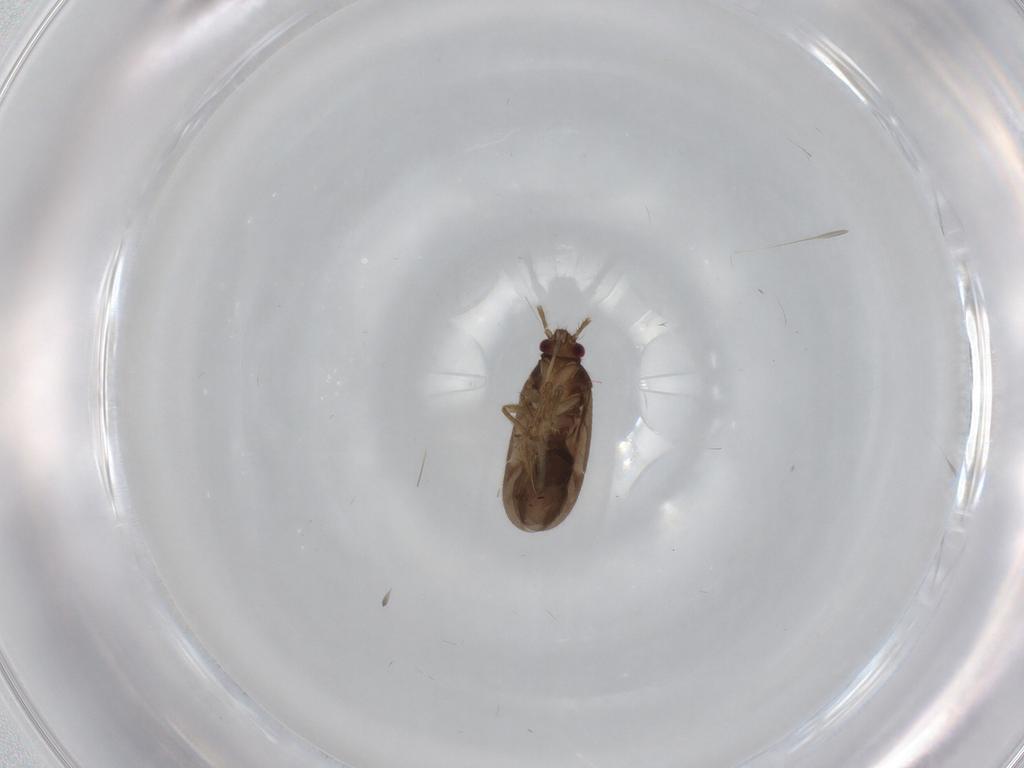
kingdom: Animalia
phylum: Arthropoda
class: Insecta
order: Hemiptera
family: Ceratocombidae
